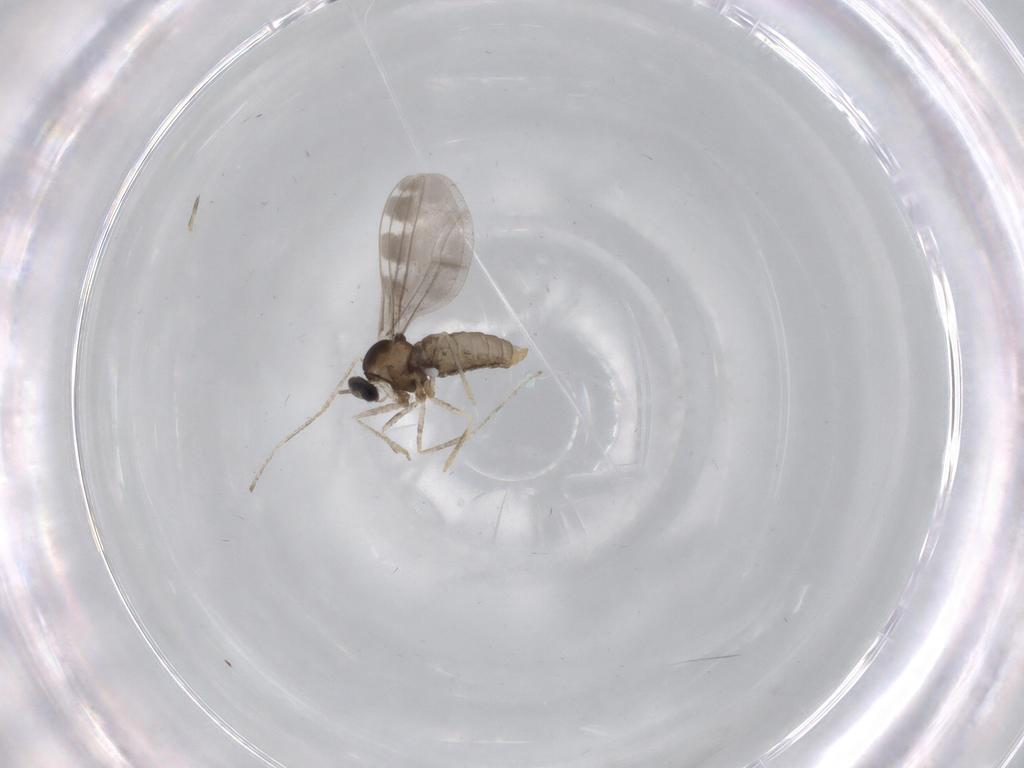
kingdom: Animalia
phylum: Arthropoda
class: Insecta
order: Diptera
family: Cecidomyiidae
